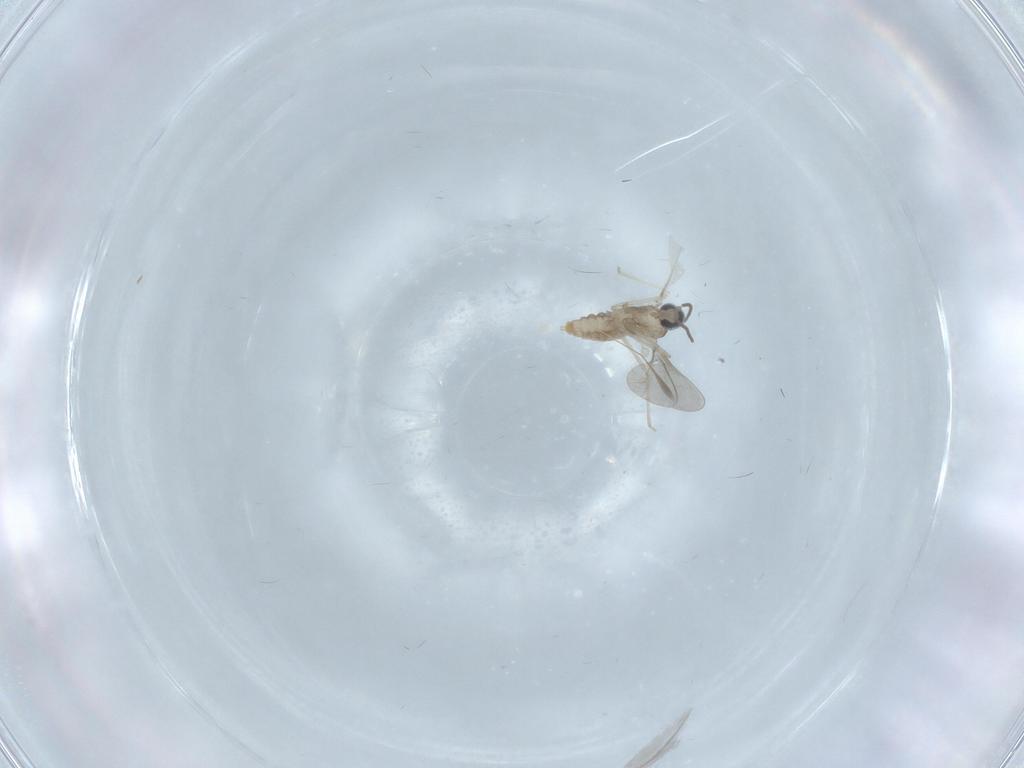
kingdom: Animalia
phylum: Arthropoda
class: Insecta
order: Diptera
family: Chironomidae
